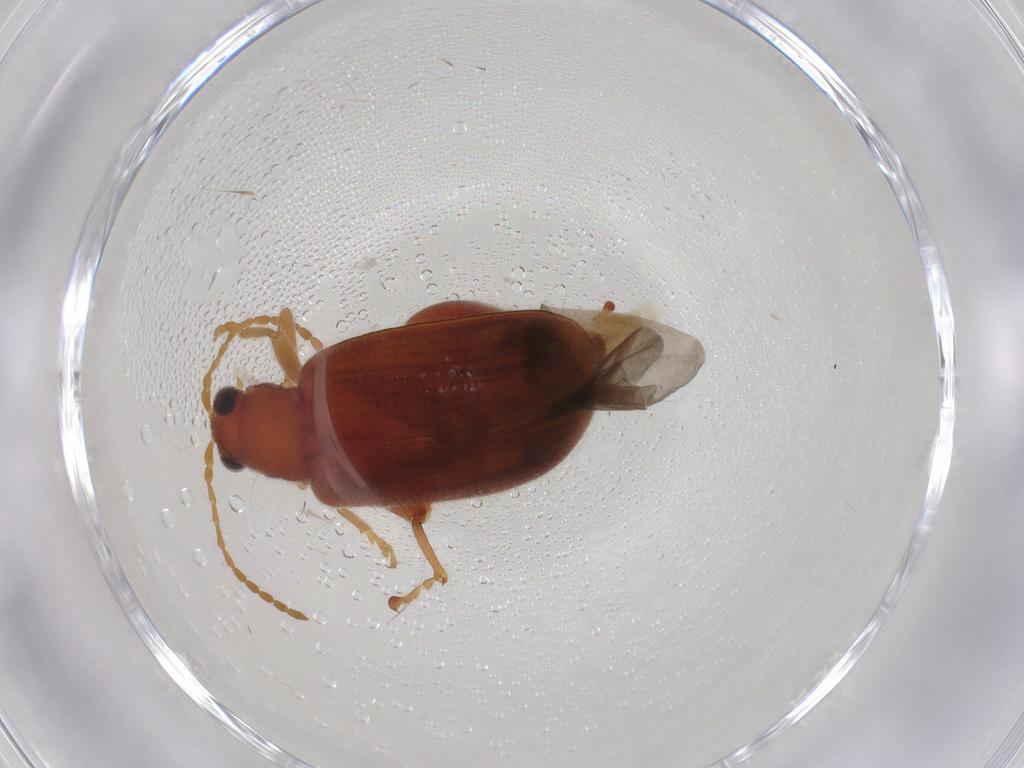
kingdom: Animalia
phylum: Arthropoda
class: Insecta
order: Coleoptera
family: Chrysomelidae
